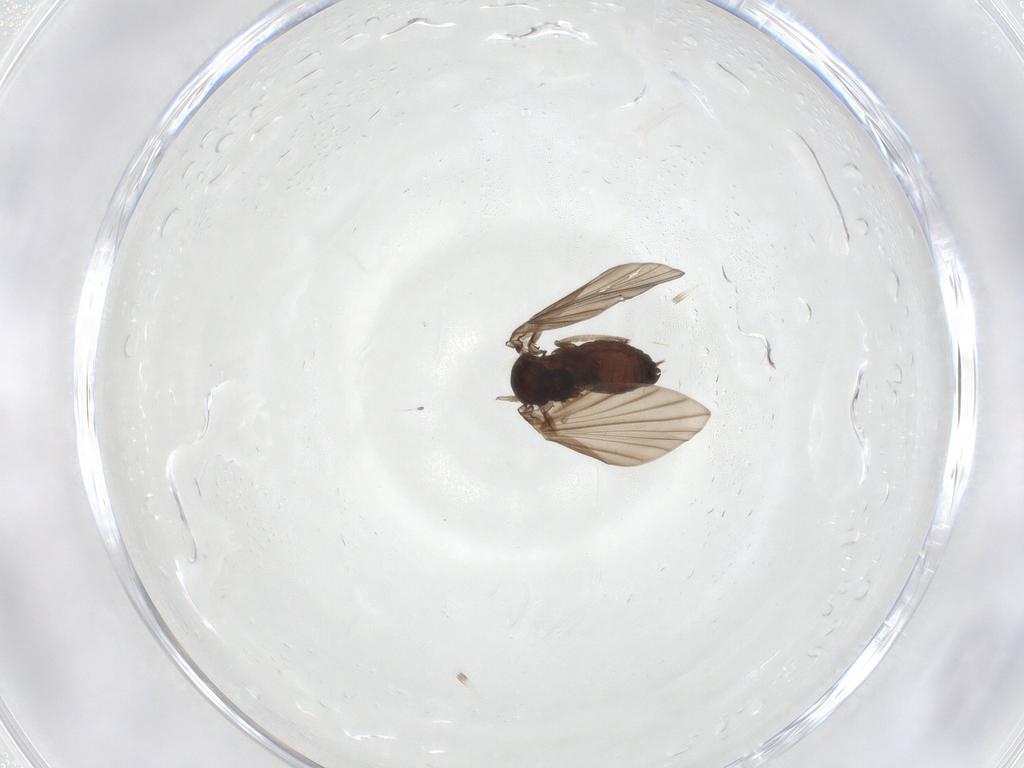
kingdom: Animalia
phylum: Arthropoda
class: Insecta
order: Diptera
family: Psychodidae
